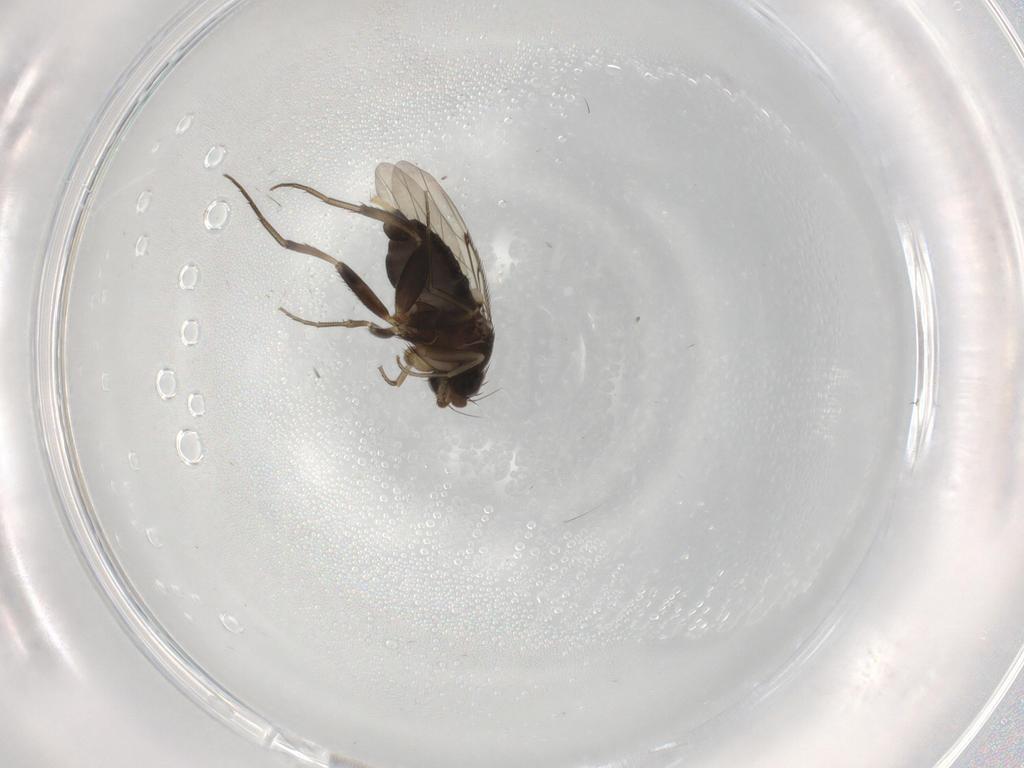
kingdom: Animalia
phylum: Arthropoda
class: Insecta
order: Diptera
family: Phoridae
